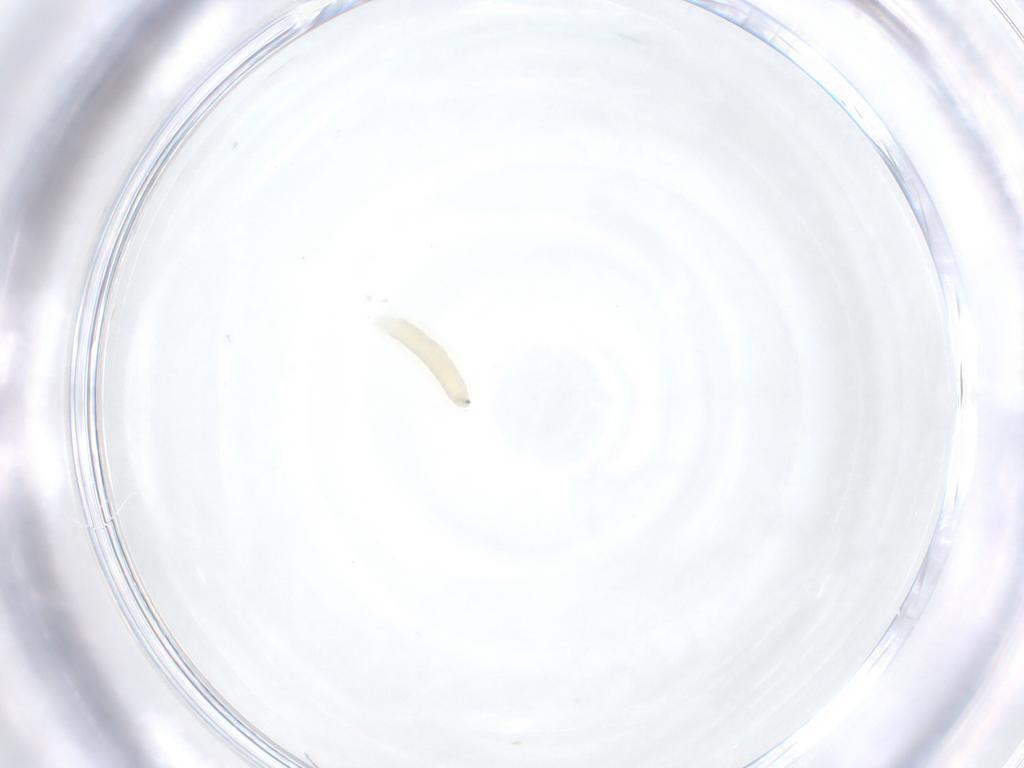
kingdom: Animalia
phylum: Arthropoda
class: Insecta
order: Diptera
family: Tachinidae
